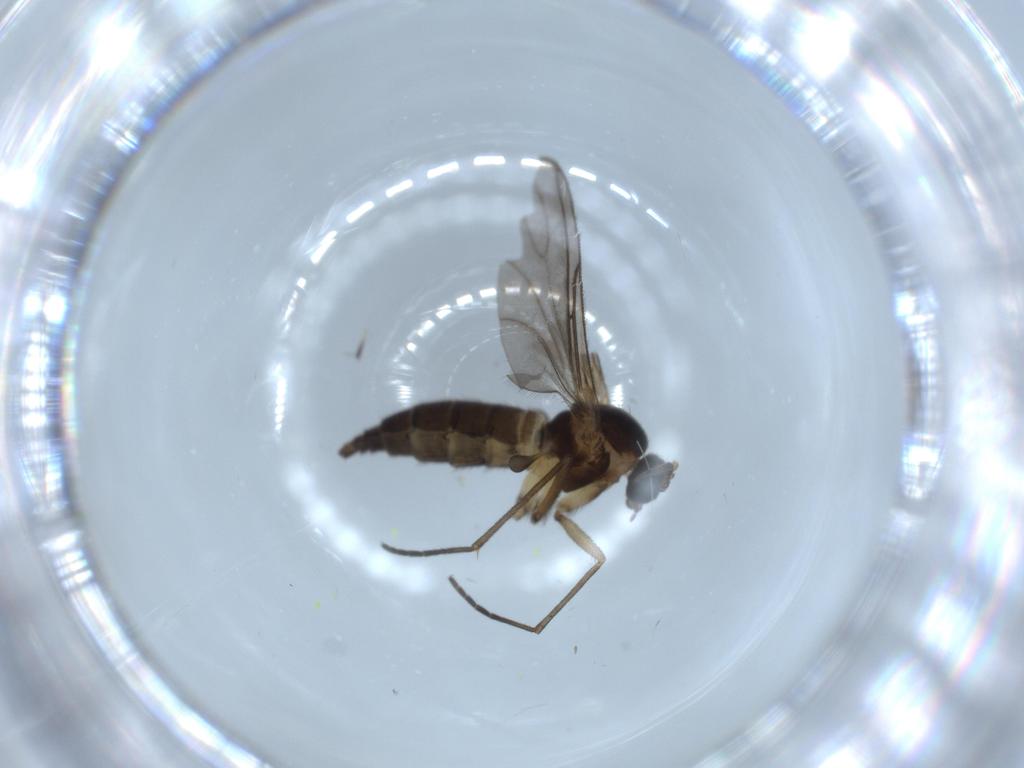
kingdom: Animalia
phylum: Arthropoda
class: Insecta
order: Diptera
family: Sciaridae
